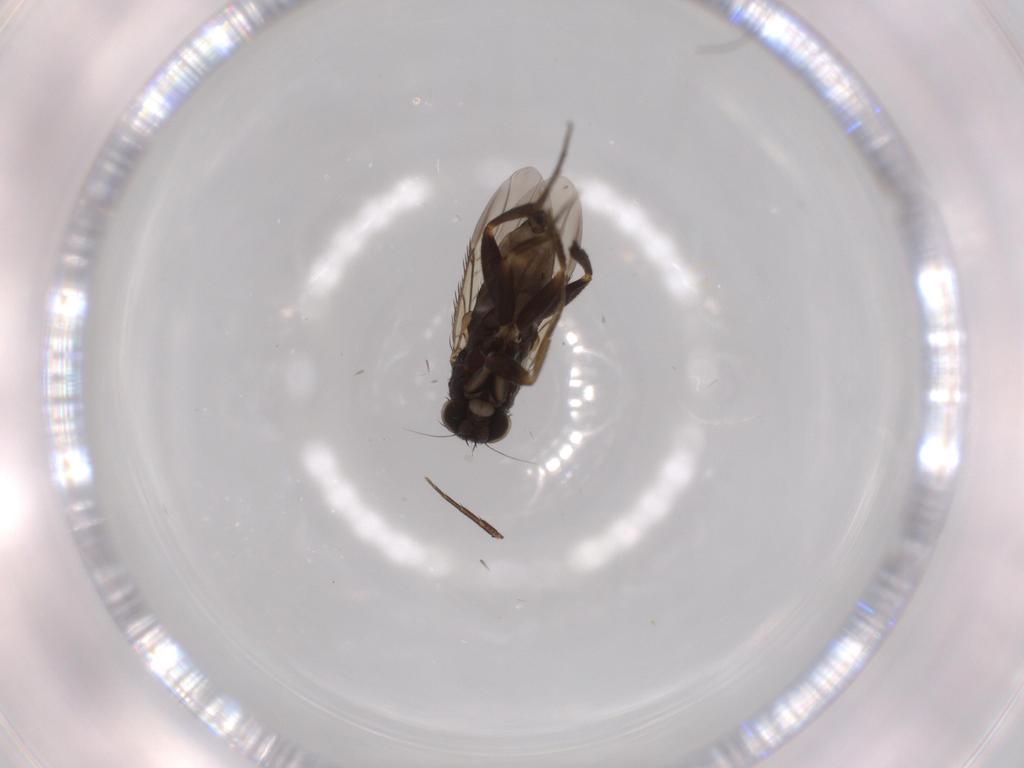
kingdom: Animalia
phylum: Arthropoda
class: Insecta
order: Diptera
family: Phoridae
